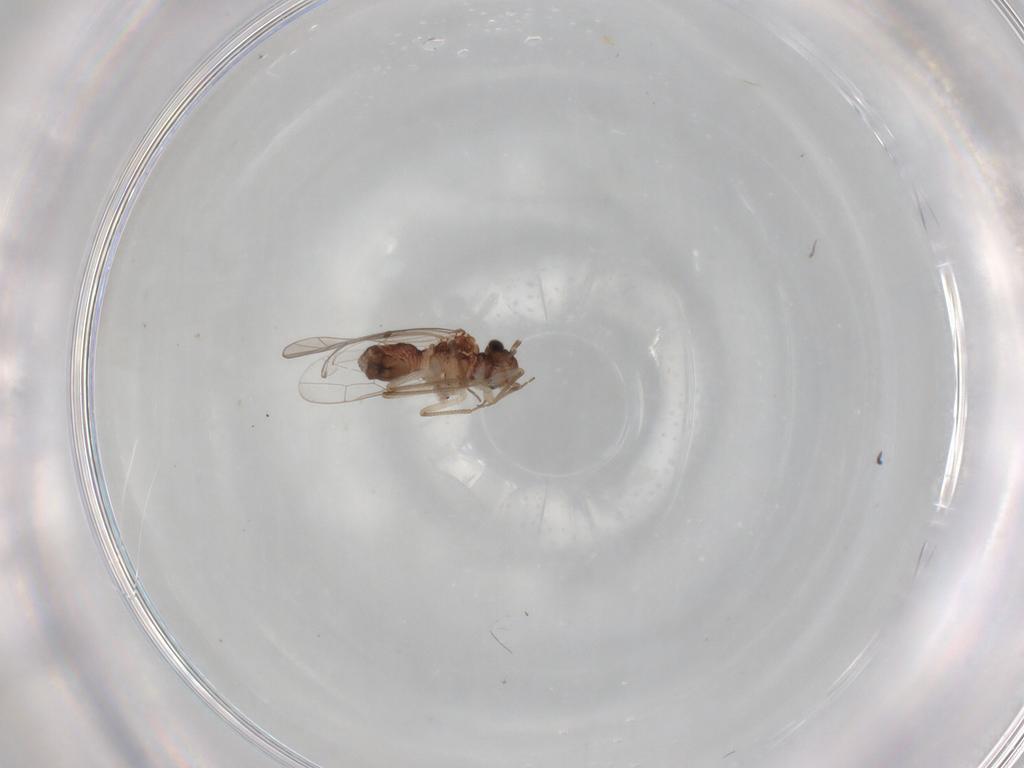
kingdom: Animalia
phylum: Arthropoda
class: Insecta
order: Psocodea
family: Ectopsocidae
